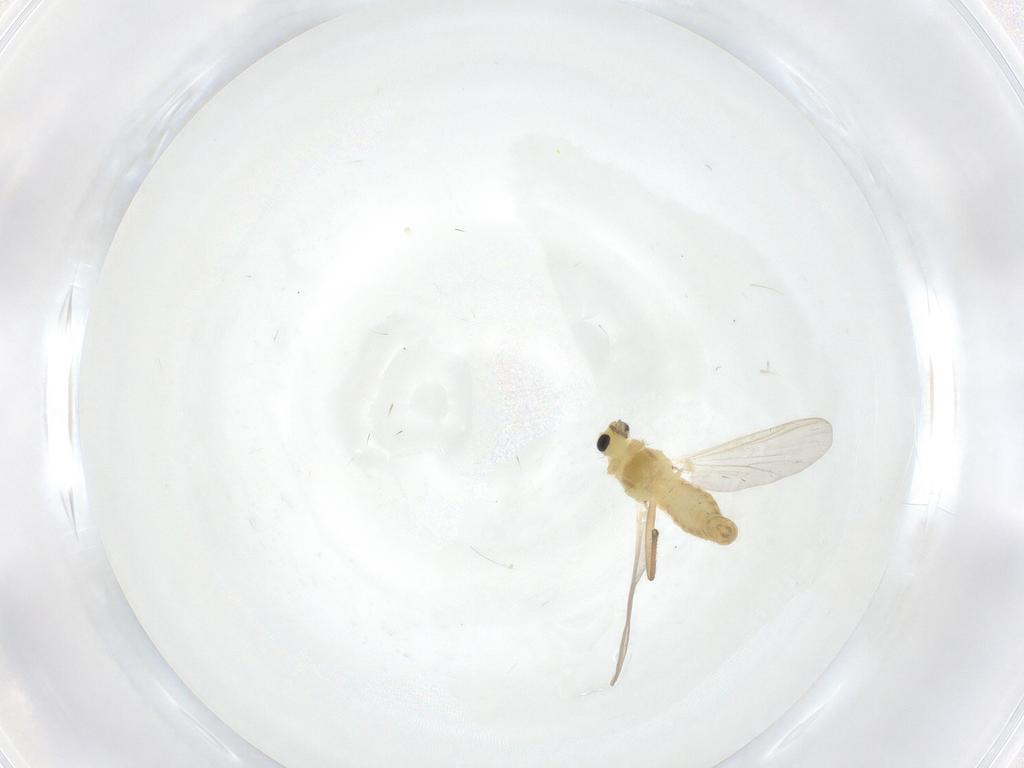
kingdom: Animalia
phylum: Arthropoda
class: Insecta
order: Diptera
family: Chironomidae
